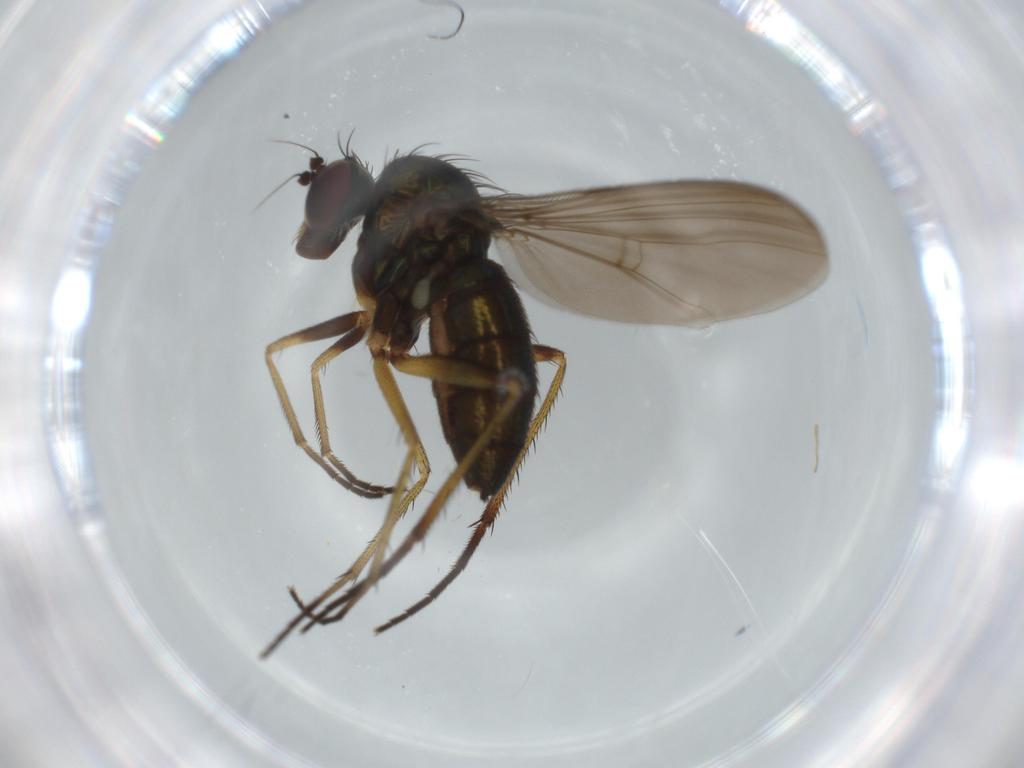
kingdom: Animalia
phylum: Arthropoda
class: Insecta
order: Diptera
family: Dolichopodidae
